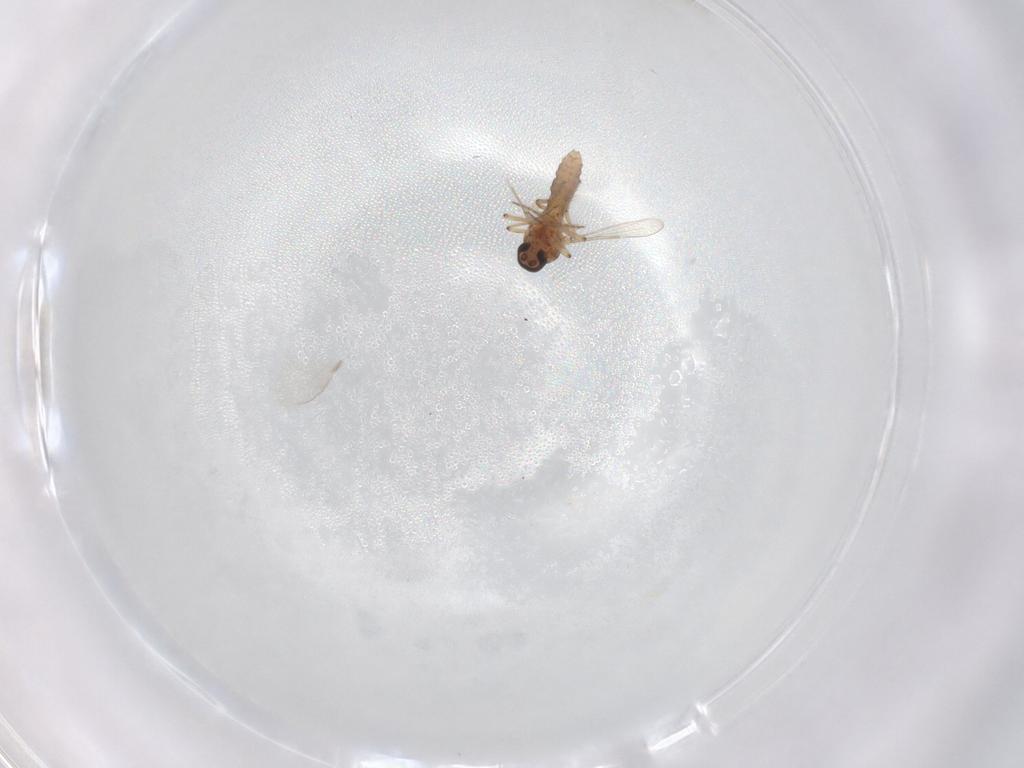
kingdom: Animalia
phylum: Arthropoda
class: Insecta
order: Diptera
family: Ceratopogonidae
